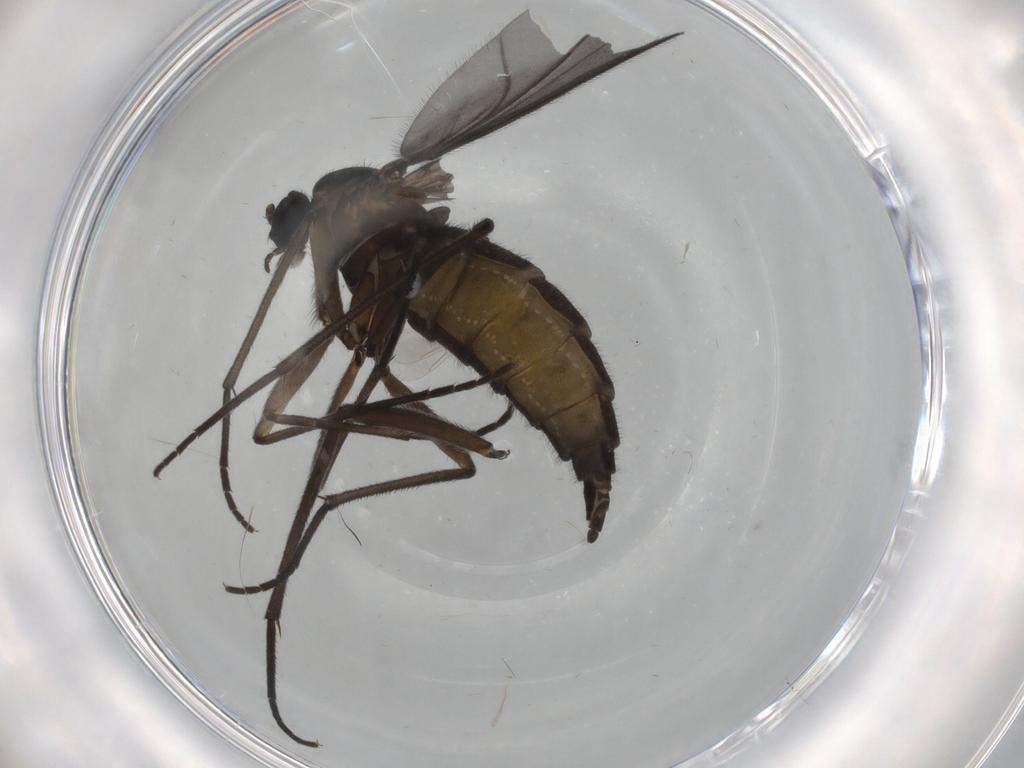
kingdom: Animalia
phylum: Arthropoda
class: Insecta
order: Diptera
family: Sciaridae
